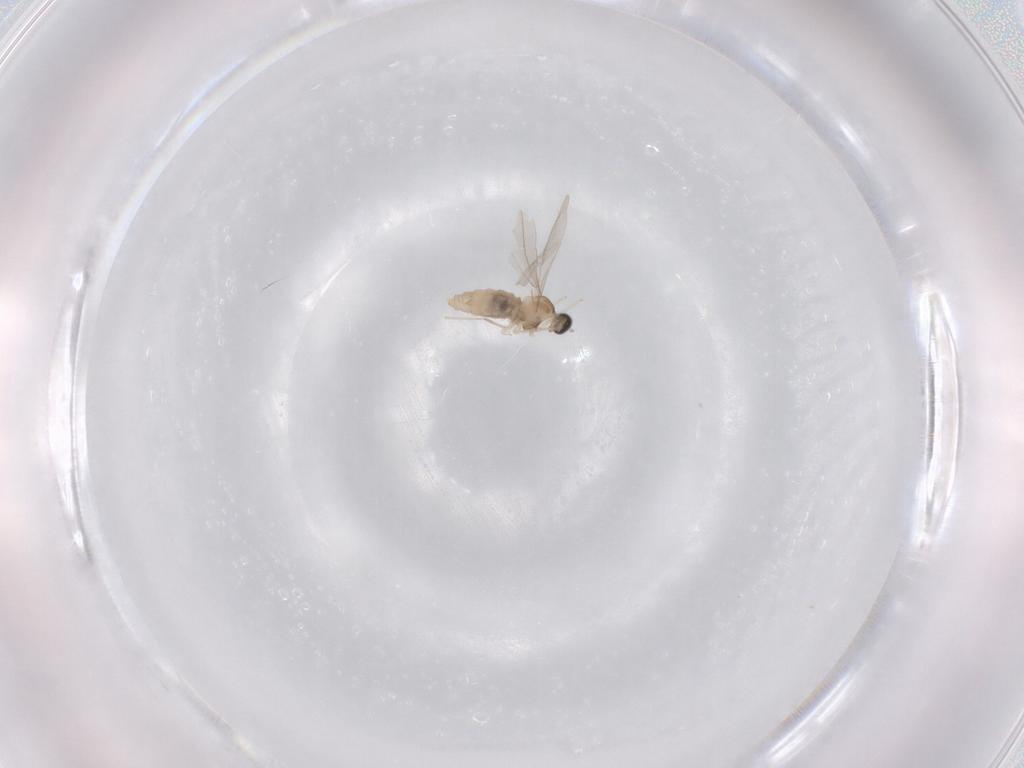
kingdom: Animalia
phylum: Arthropoda
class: Insecta
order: Diptera
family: Cecidomyiidae
